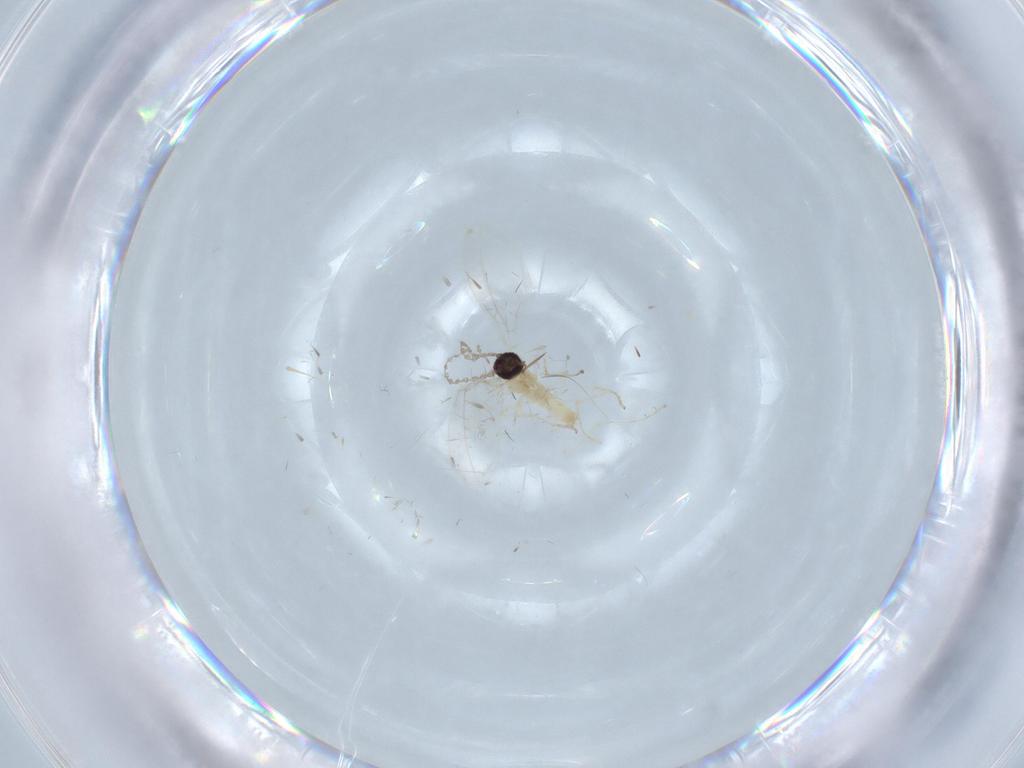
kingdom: Animalia
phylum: Arthropoda
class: Insecta
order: Diptera
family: Cecidomyiidae
